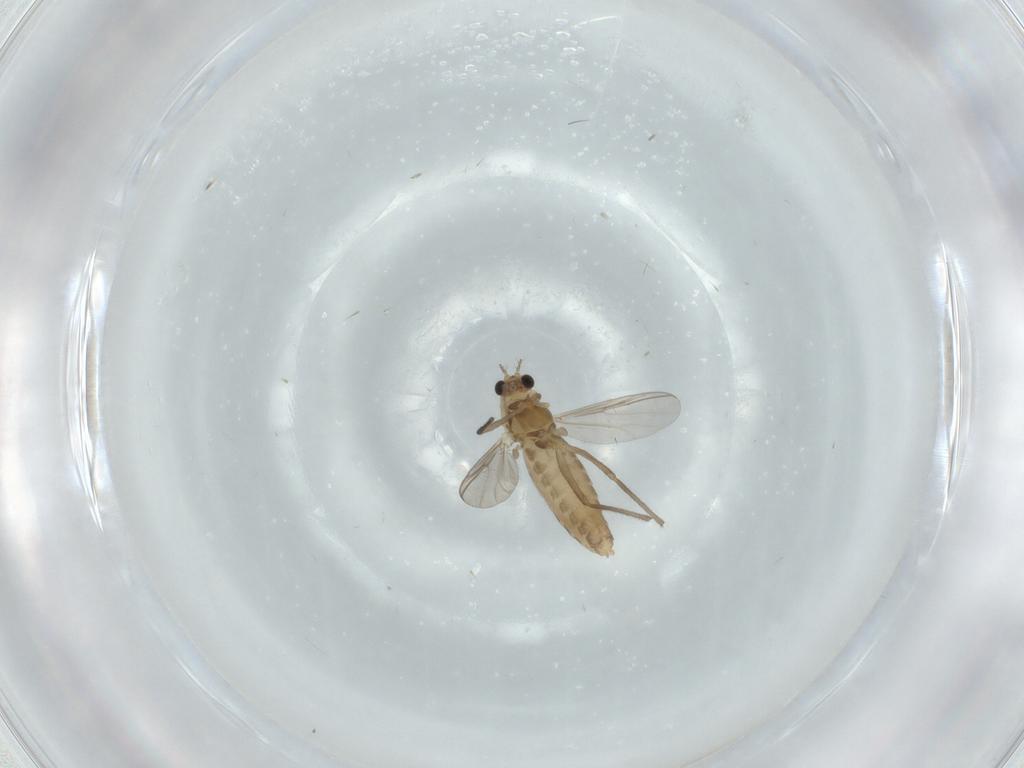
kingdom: Animalia
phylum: Arthropoda
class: Insecta
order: Diptera
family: Chironomidae
